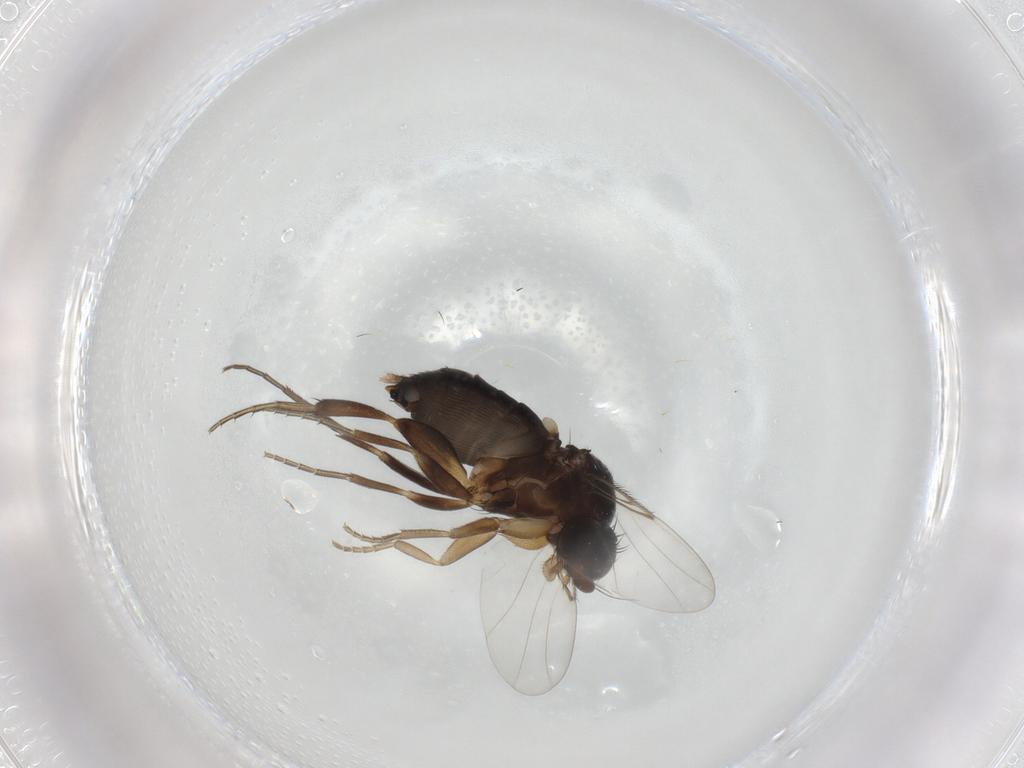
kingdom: Animalia
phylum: Arthropoda
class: Insecta
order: Diptera
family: Phoridae
